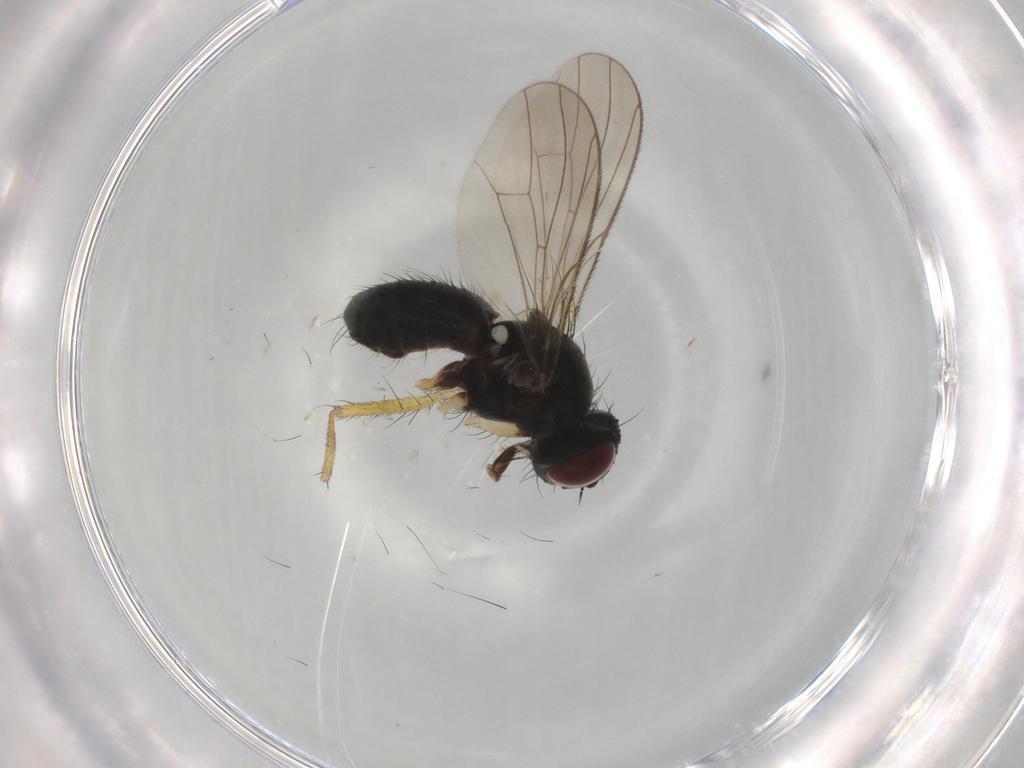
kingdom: Animalia
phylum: Arthropoda
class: Insecta
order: Diptera
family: Muscidae
